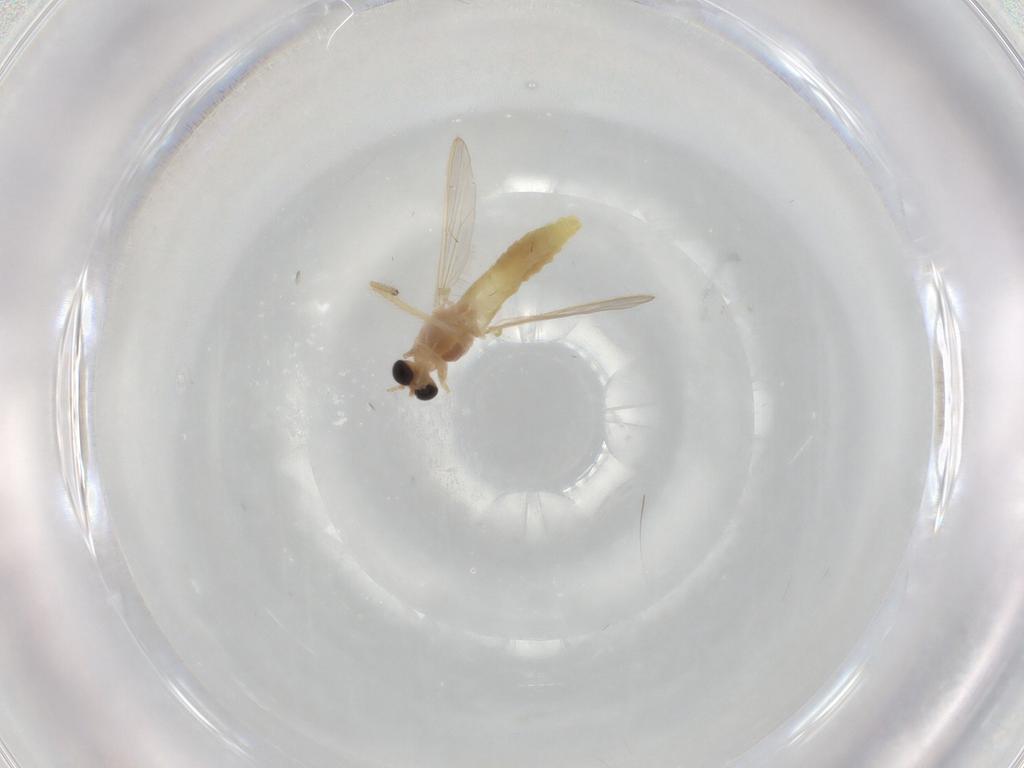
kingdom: Animalia
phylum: Arthropoda
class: Insecta
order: Diptera
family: Chironomidae
